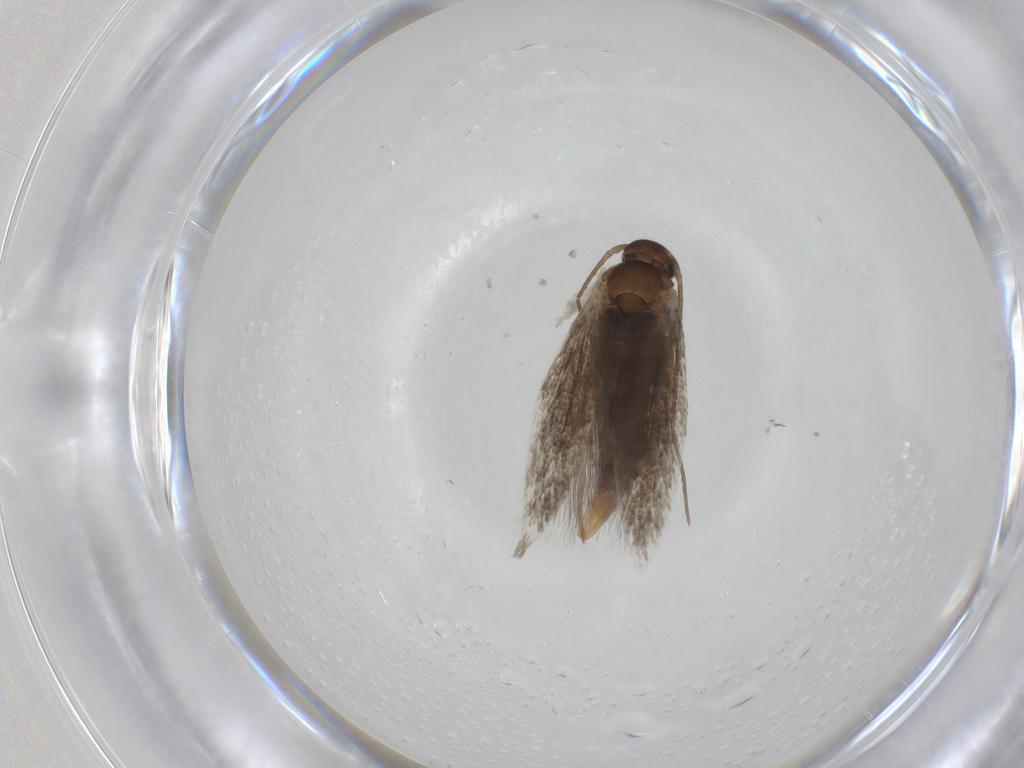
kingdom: Animalia
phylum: Arthropoda
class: Insecta
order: Lepidoptera
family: Elachistidae
